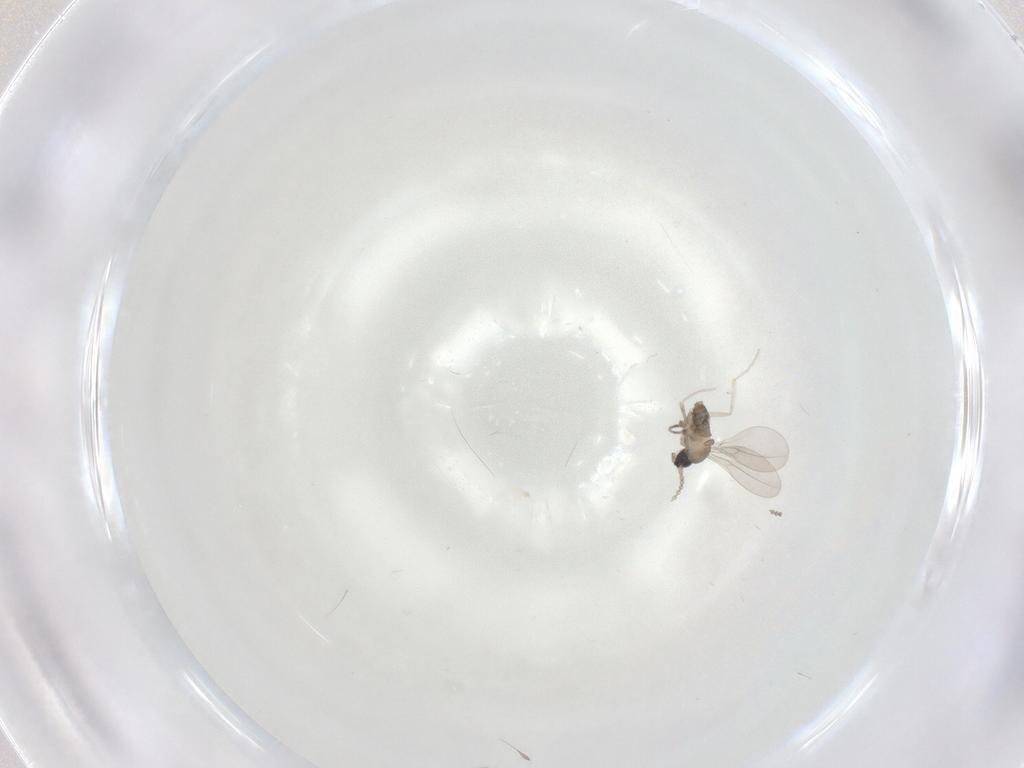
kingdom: Animalia
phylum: Arthropoda
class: Insecta
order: Diptera
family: Cecidomyiidae
